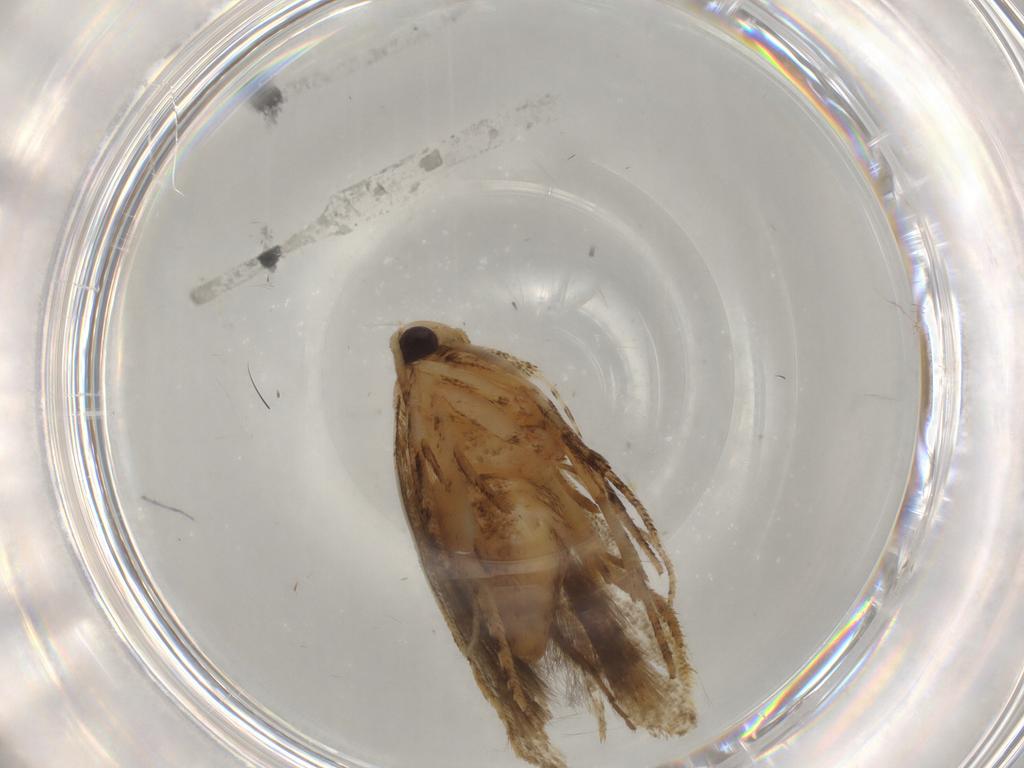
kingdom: Animalia
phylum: Arthropoda
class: Insecta
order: Lepidoptera
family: Gelechiidae
